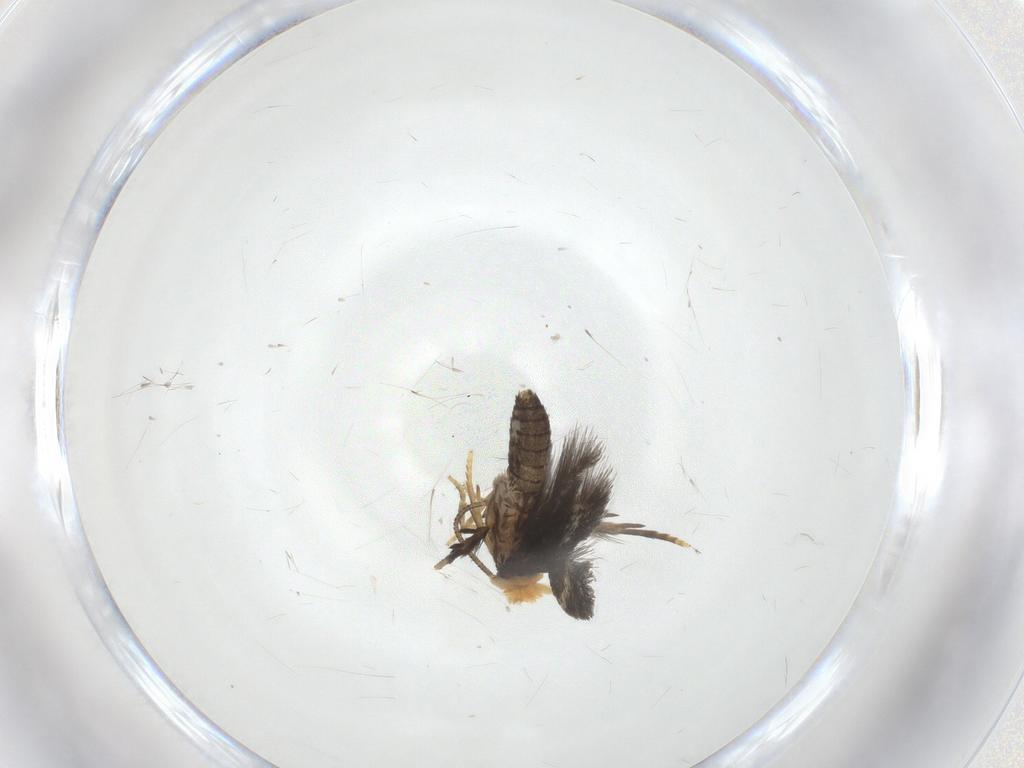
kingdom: Animalia
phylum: Arthropoda
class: Insecta
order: Lepidoptera
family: Nepticulidae
